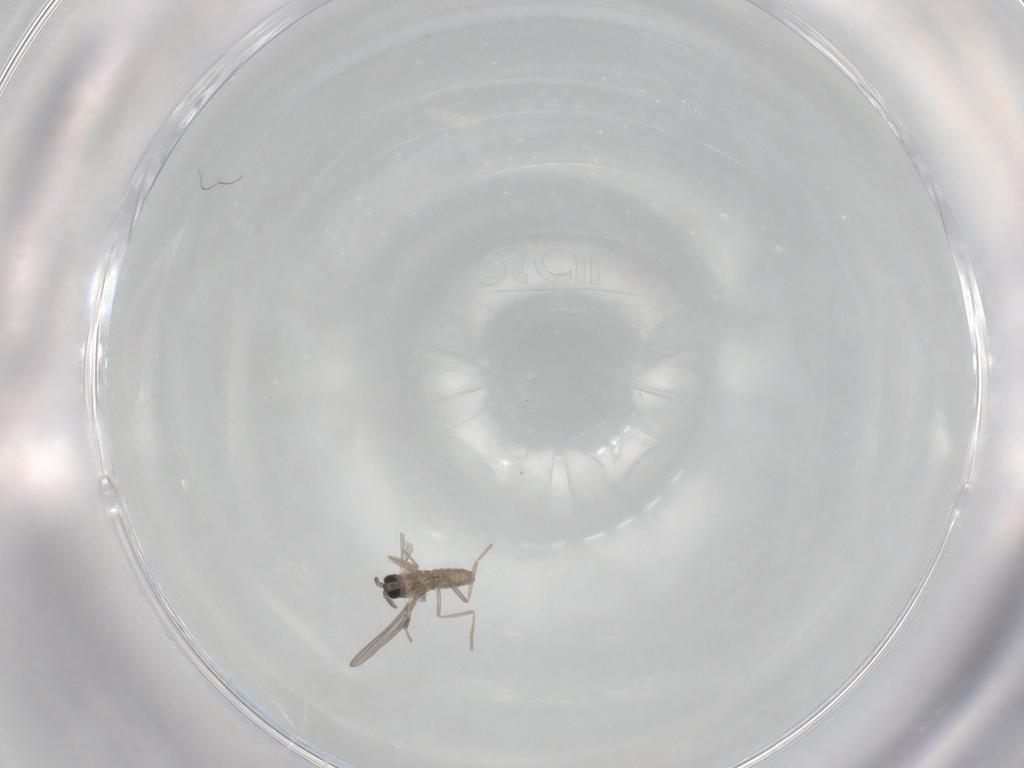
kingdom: Animalia
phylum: Arthropoda
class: Insecta
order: Diptera
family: Cecidomyiidae
